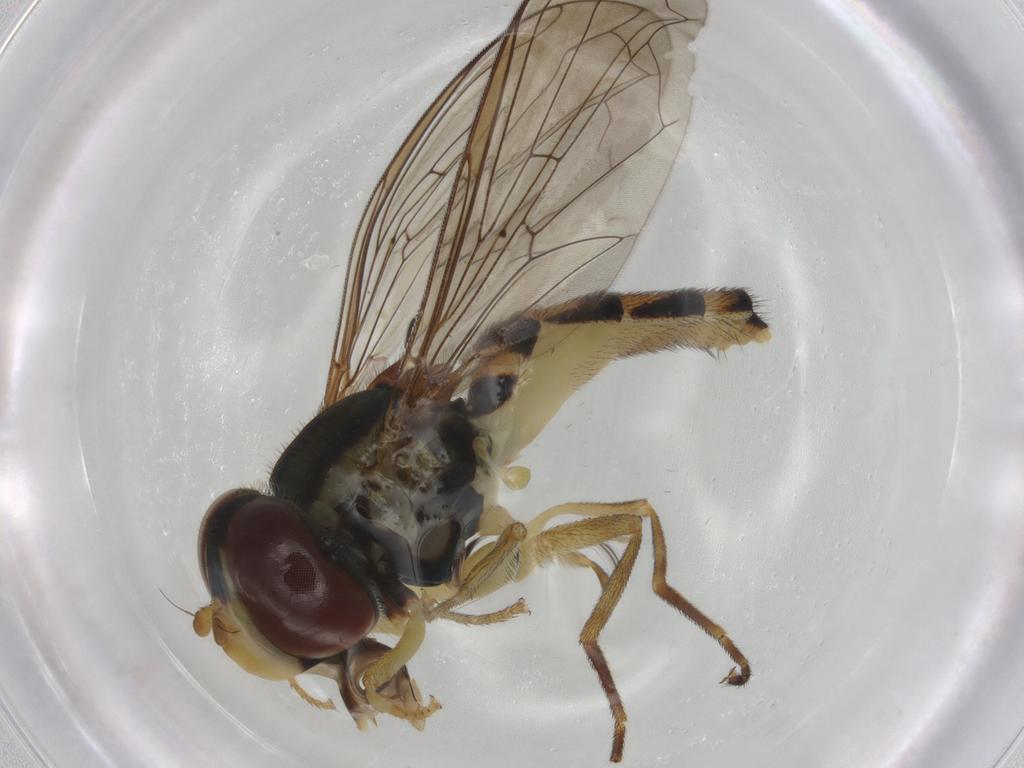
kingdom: Animalia
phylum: Arthropoda
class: Insecta
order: Diptera
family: Syrphidae
